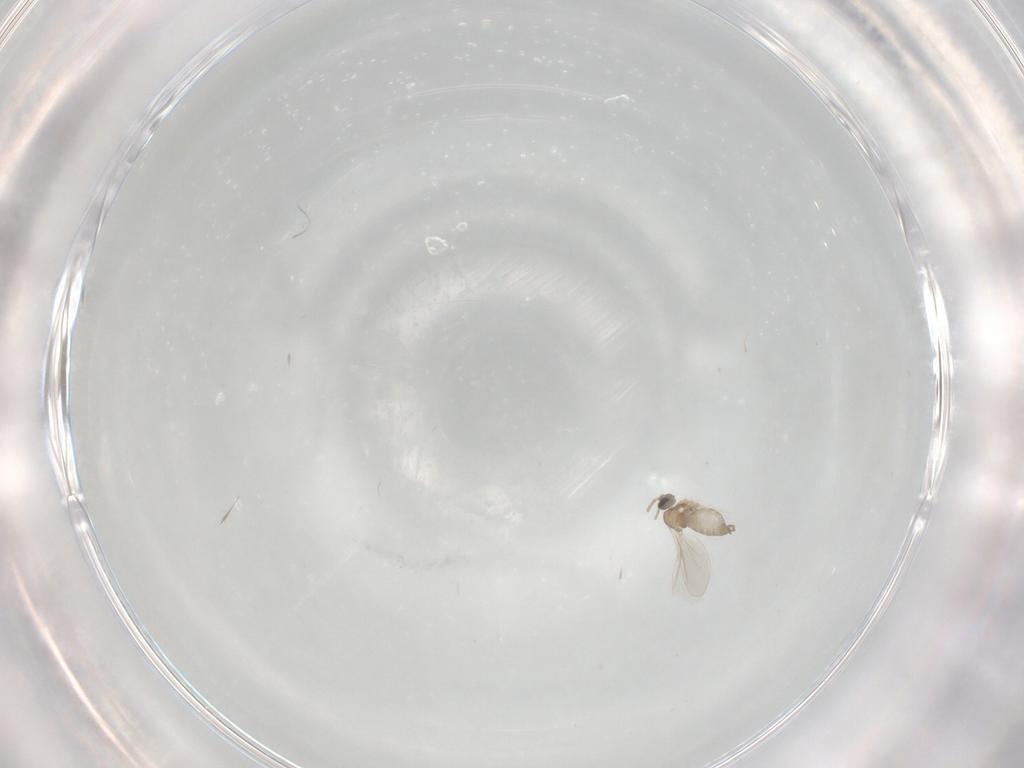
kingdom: Animalia
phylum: Arthropoda
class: Insecta
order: Diptera
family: Cecidomyiidae
